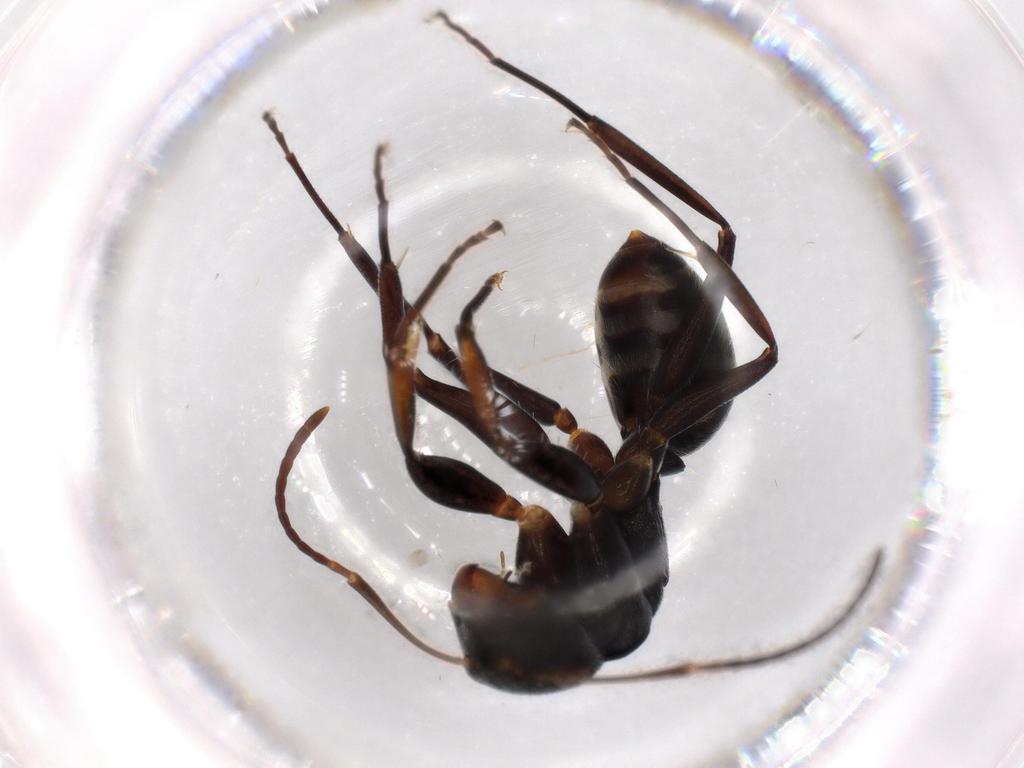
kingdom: Animalia
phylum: Arthropoda
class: Insecta
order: Hymenoptera
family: Formicidae
